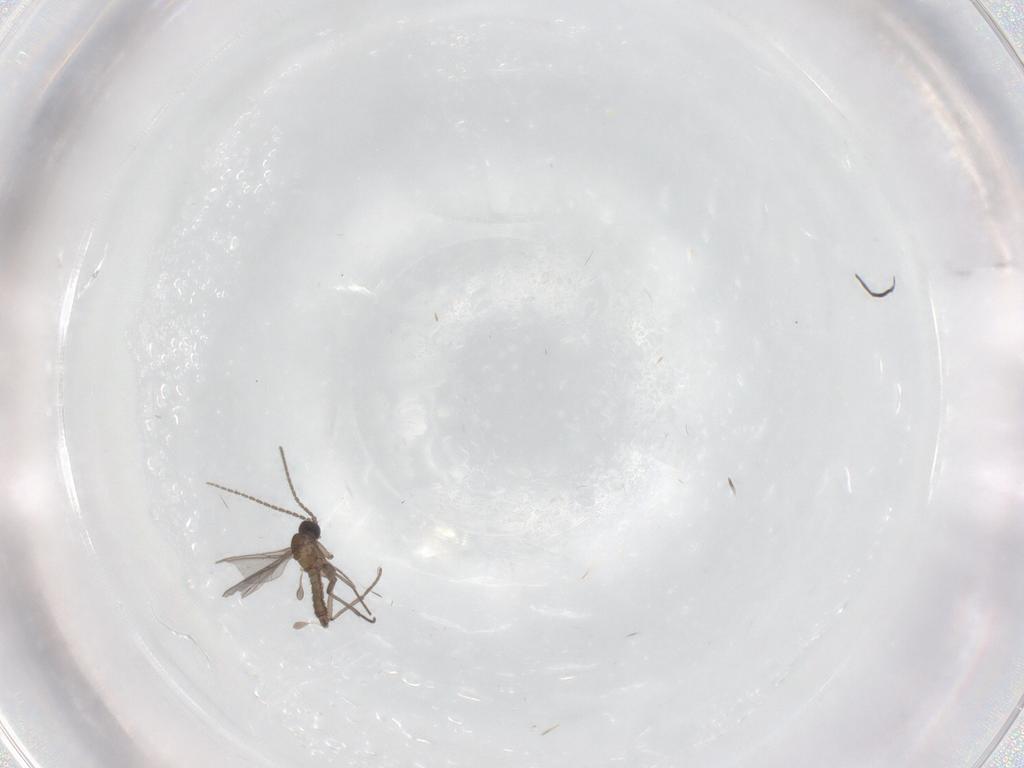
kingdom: Animalia
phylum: Arthropoda
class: Insecta
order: Diptera
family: Sciaridae
